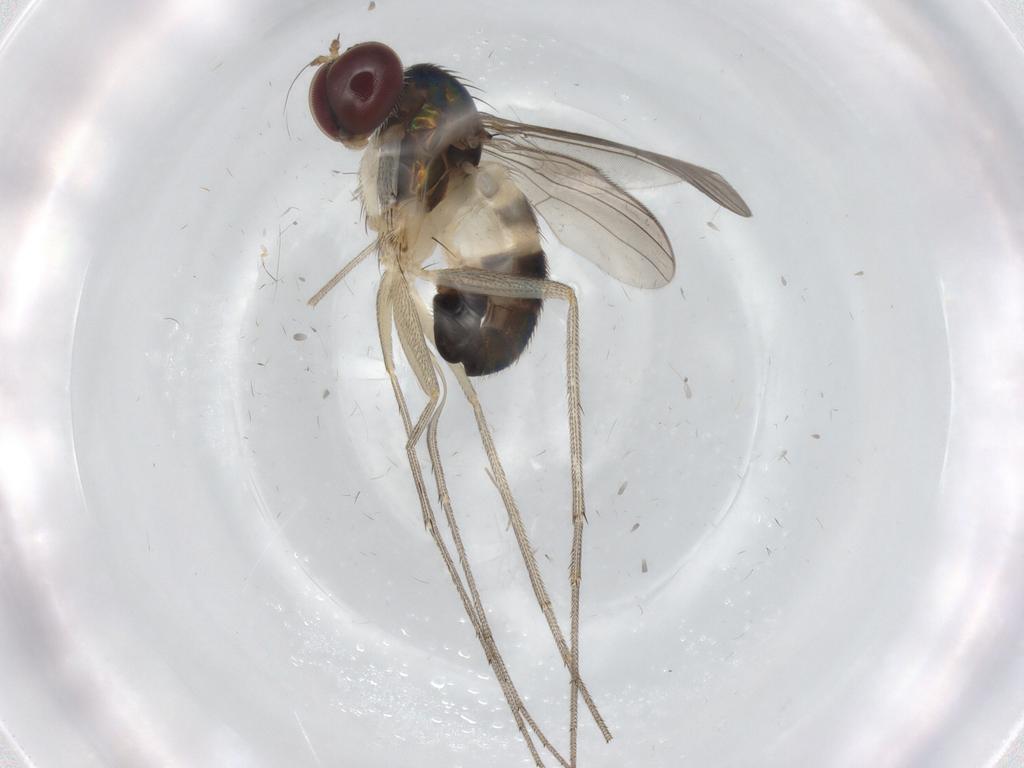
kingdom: Animalia
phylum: Arthropoda
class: Insecta
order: Diptera
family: Dolichopodidae
